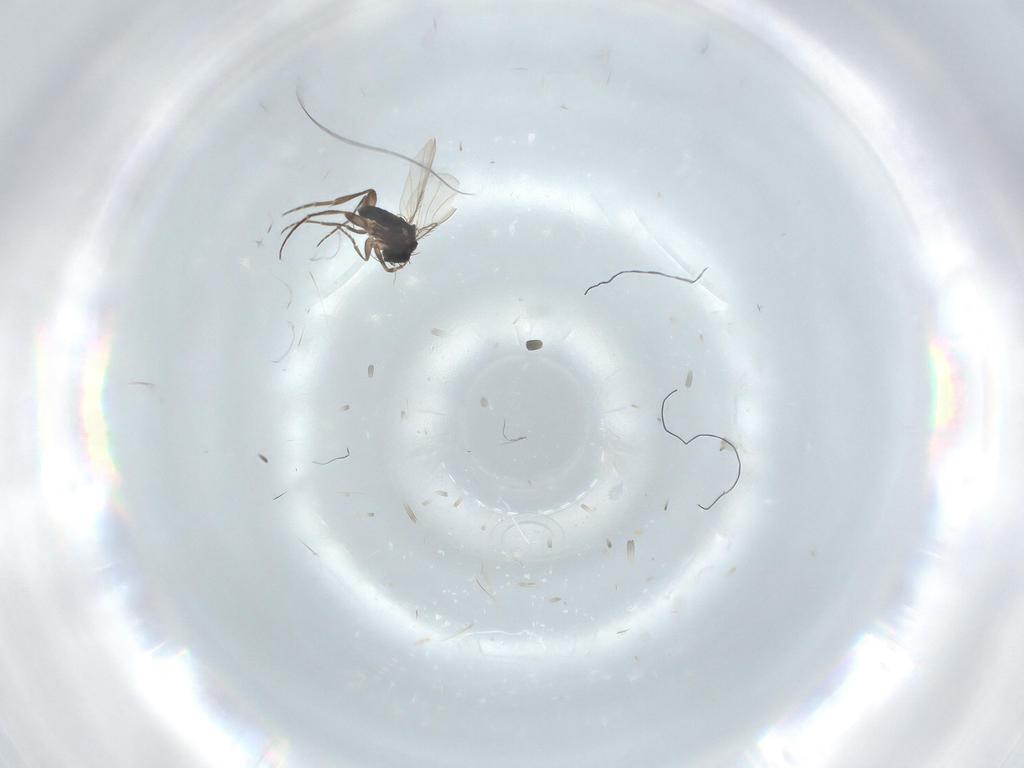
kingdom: Animalia
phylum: Arthropoda
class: Insecta
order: Diptera
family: Phoridae
